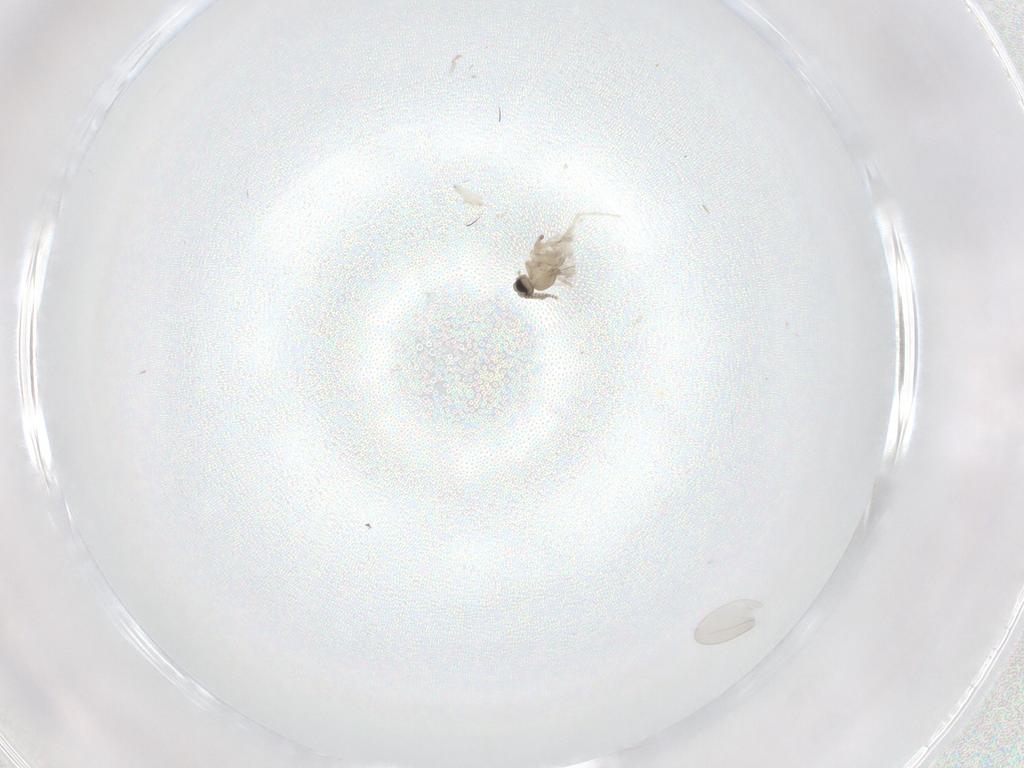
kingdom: Animalia
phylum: Arthropoda
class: Insecta
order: Diptera
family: Cecidomyiidae
